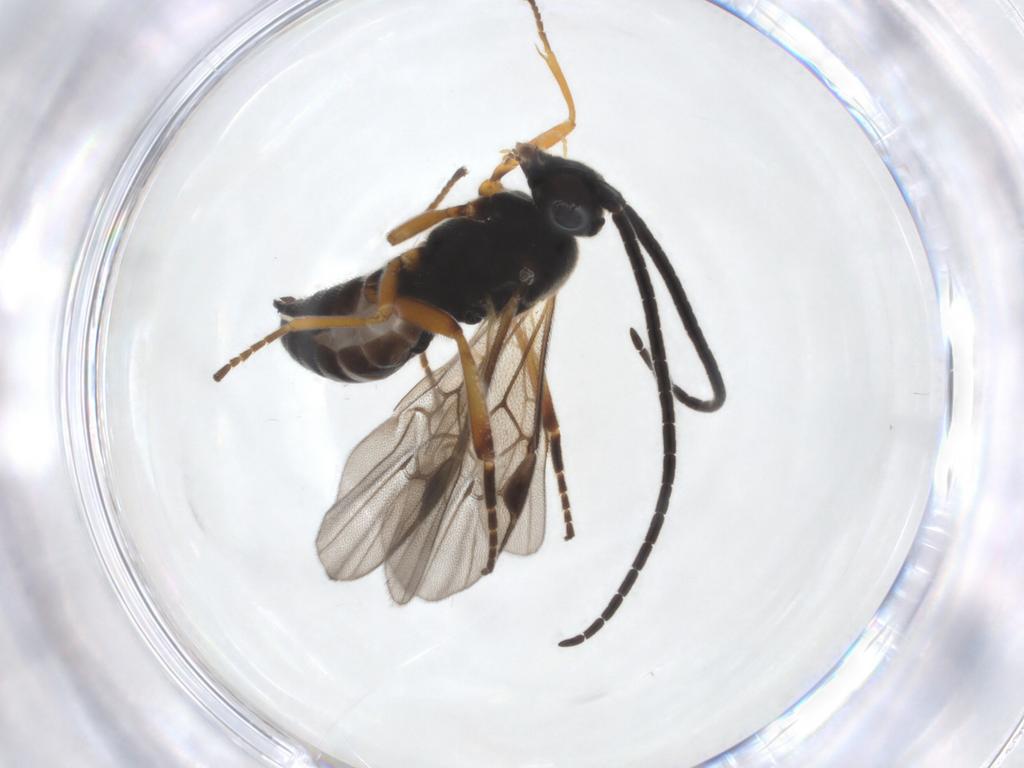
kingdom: Animalia
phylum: Arthropoda
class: Insecta
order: Hymenoptera
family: Braconidae
